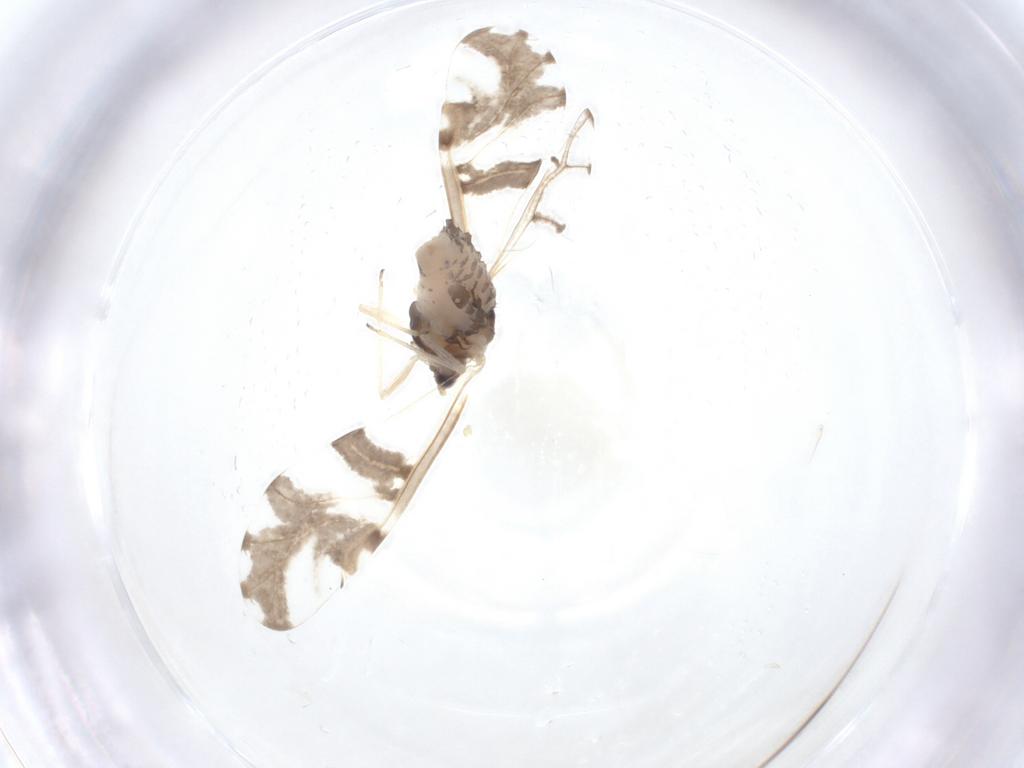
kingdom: Animalia
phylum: Arthropoda
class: Insecta
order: Hemiptera
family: Aphididae
